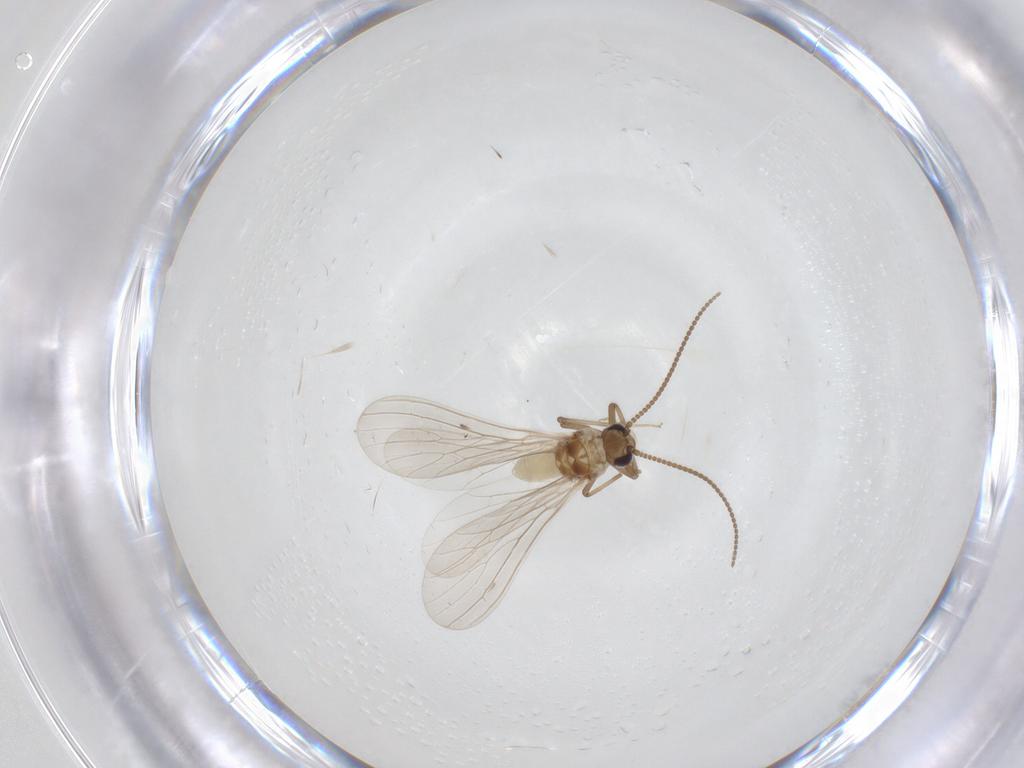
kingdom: Animalia
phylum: Arthropoda
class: Insecta
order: Neuroptera
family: Coniopterygidae
